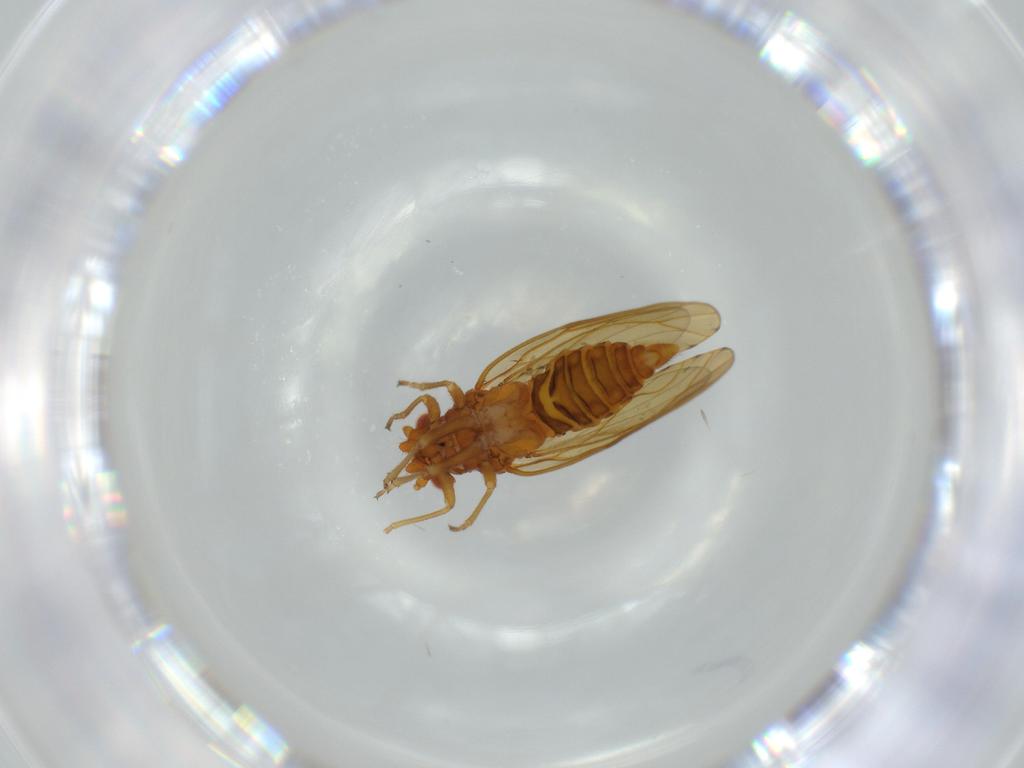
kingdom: Animalia
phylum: Arthropoda
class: Insecta
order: Hemiptera
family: Psylloidea_incertae_sedis
